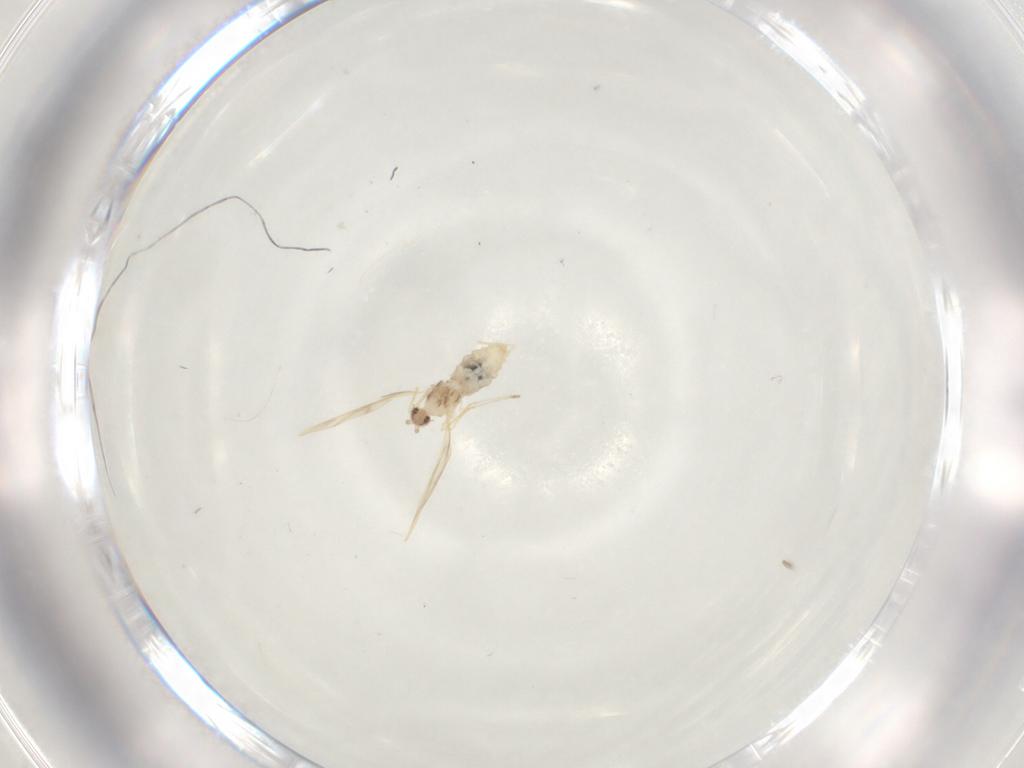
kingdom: Animalia
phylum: Arthropoda
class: Insecta
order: Diptera
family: Cecidomyiidae
